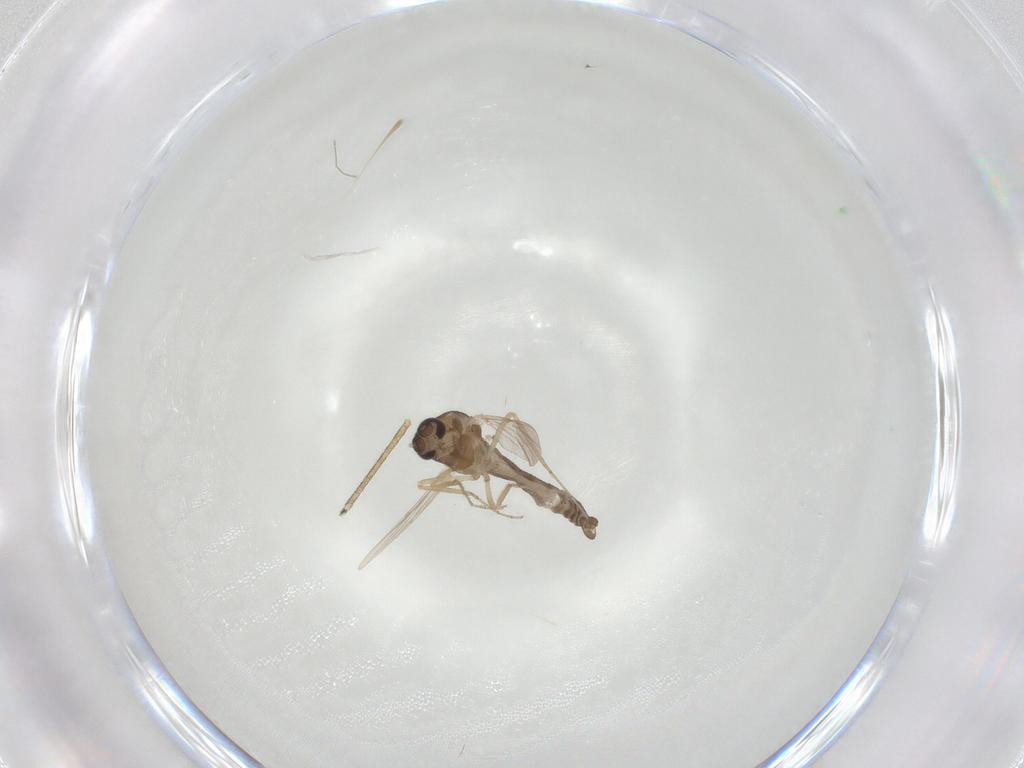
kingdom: Animalia
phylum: Arthropoda
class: Insecta
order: Diptera
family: Ceratopogonidae
